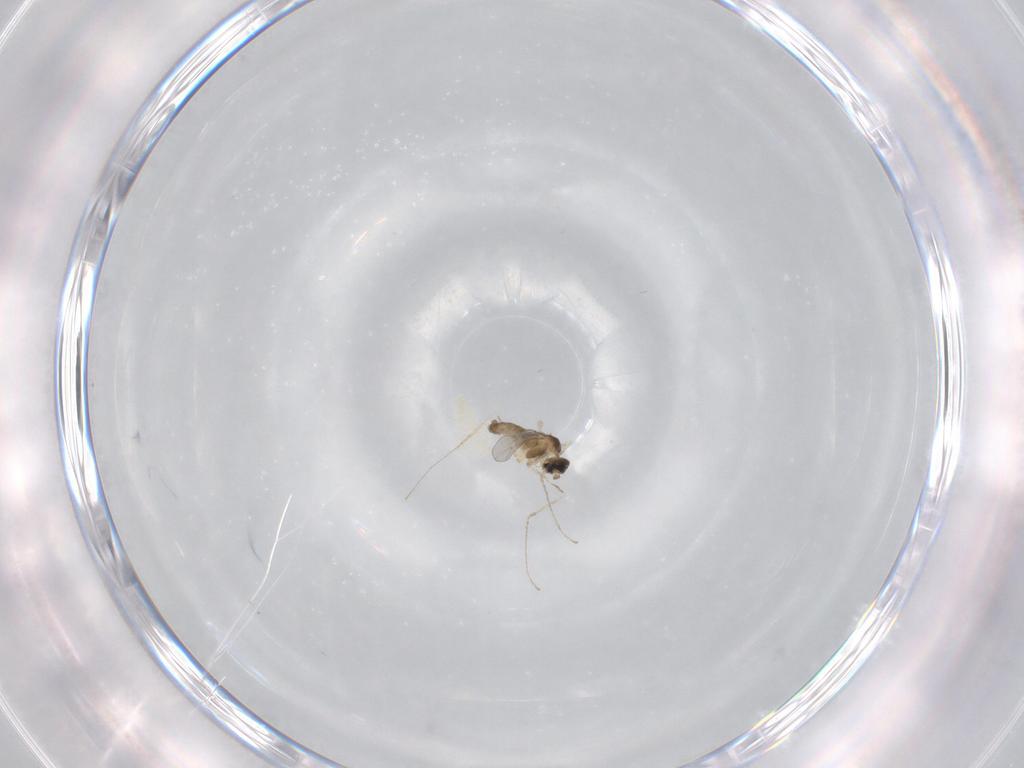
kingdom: Animalia
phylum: Arthropoda
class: Insecta
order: Diptera
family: Cecidomyiidae
